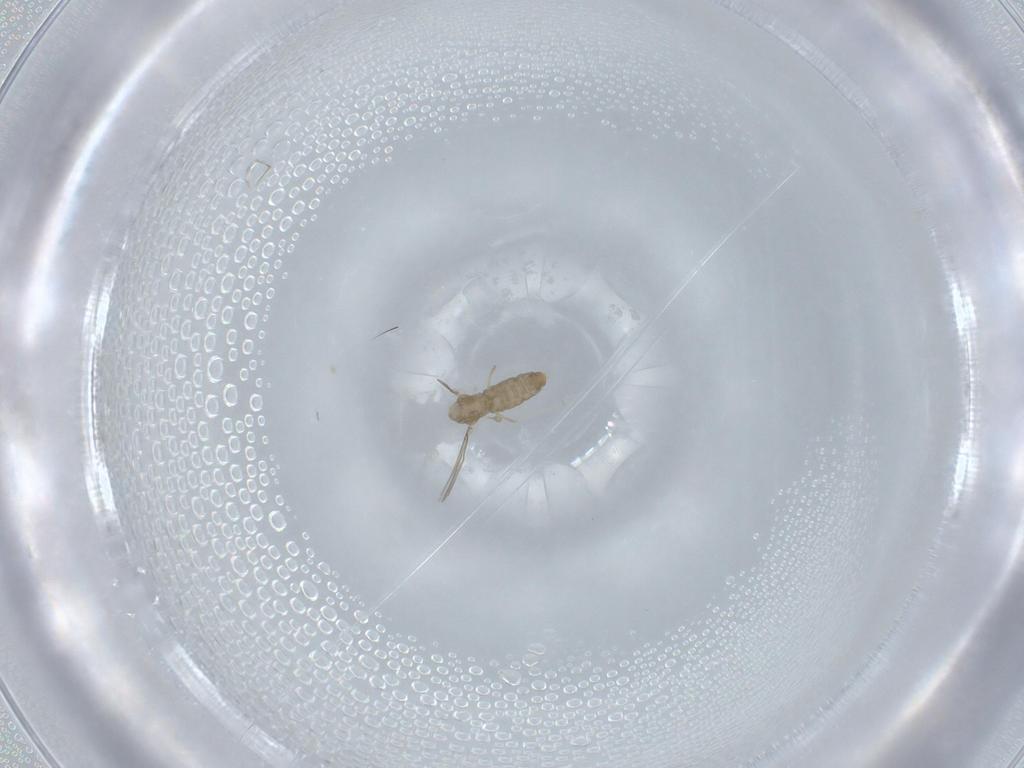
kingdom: Animalia
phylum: Arthropoda
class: Insecta
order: Diptera
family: Cecidomyiidae
